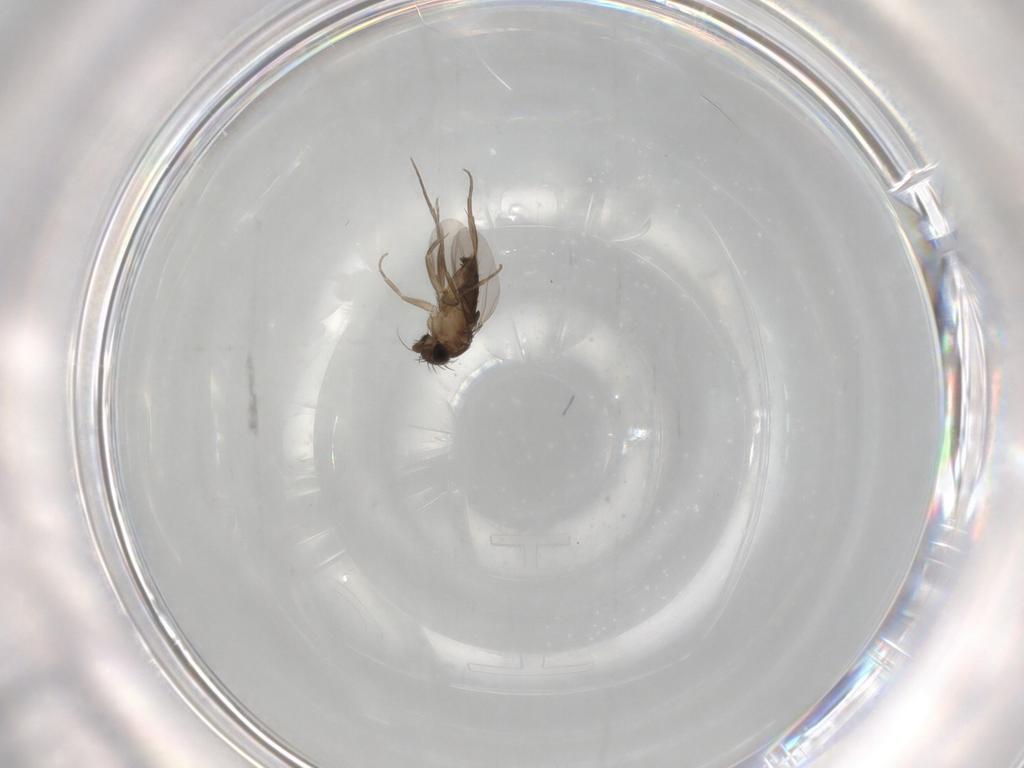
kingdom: Animalia
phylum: Arthropoda
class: Insecta
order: Diptera
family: Phoridae
